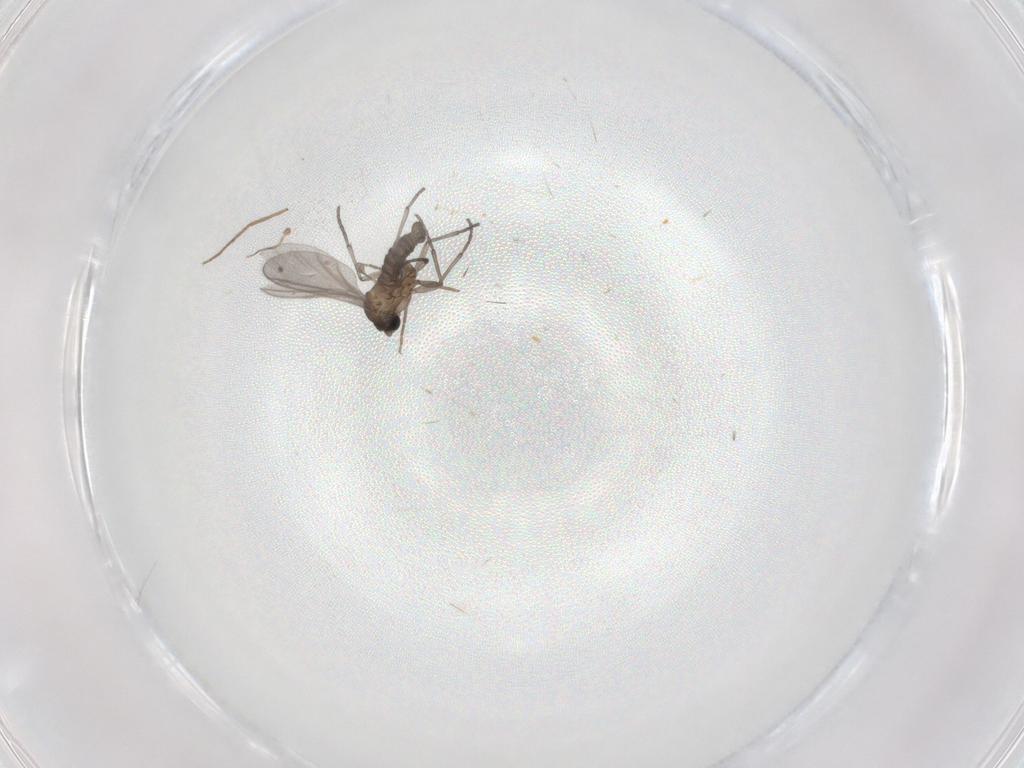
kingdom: Animalia
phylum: Arthropoda
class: Insecta
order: Diptera
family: Sciaridae
